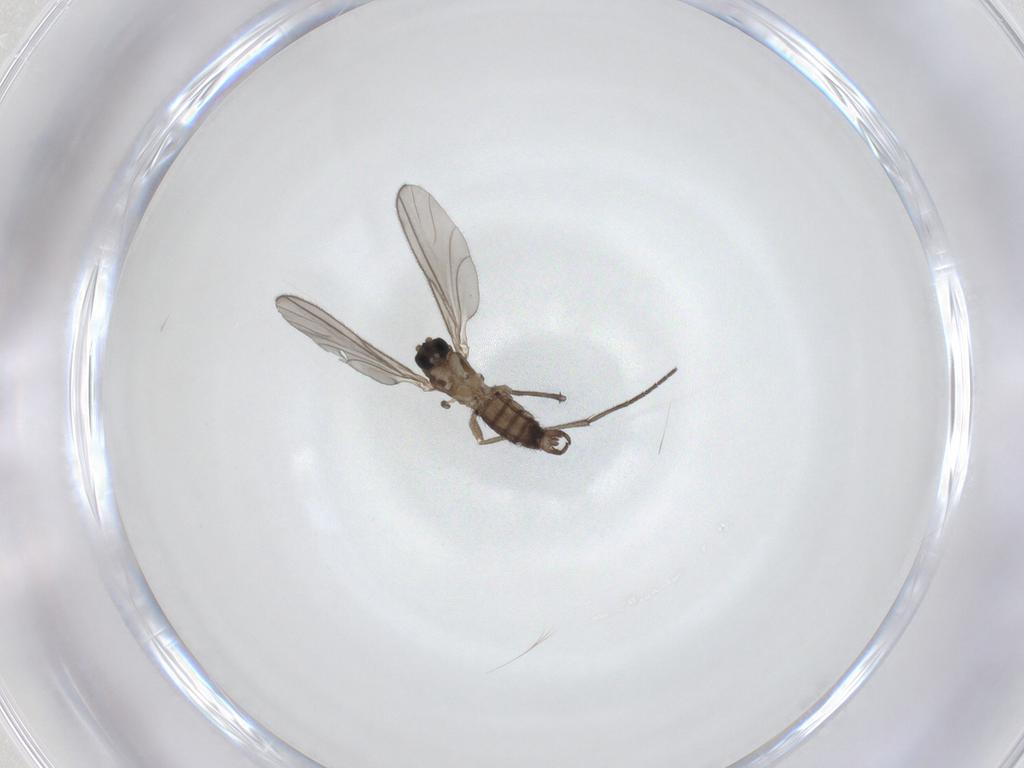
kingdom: Animalia
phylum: Arthropoda
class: Insecta
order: Diptera
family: Sciaridae
